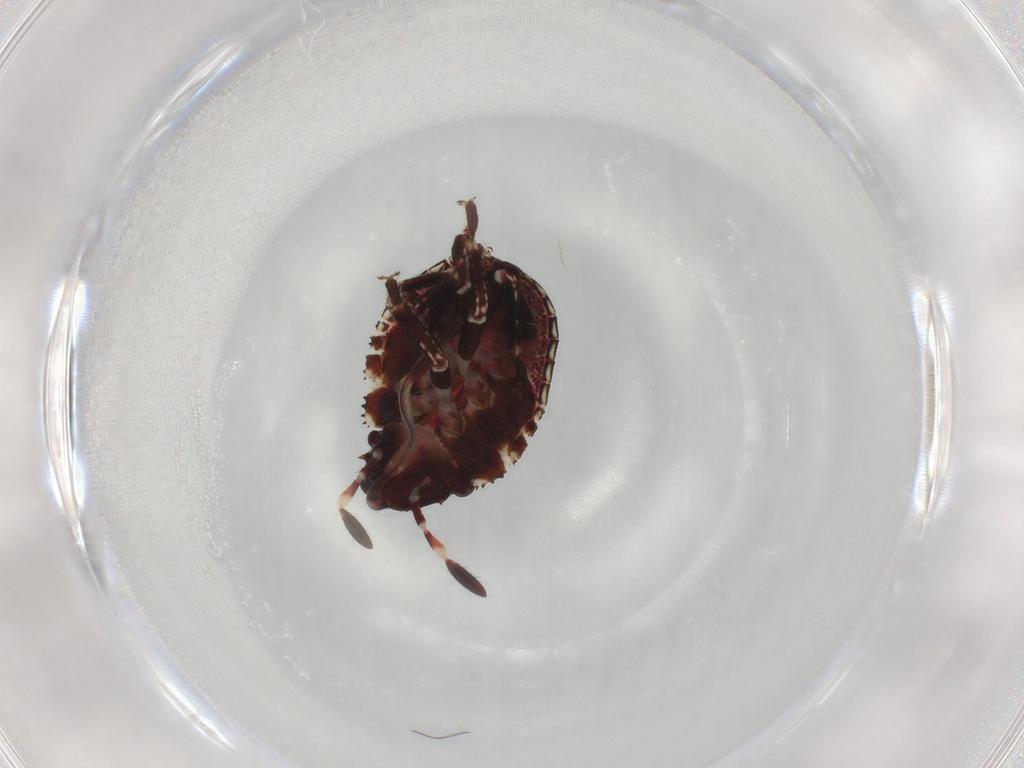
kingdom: Animalia
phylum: Arthropoda
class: Insecta
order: Hemiptera
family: Scutelleridae
